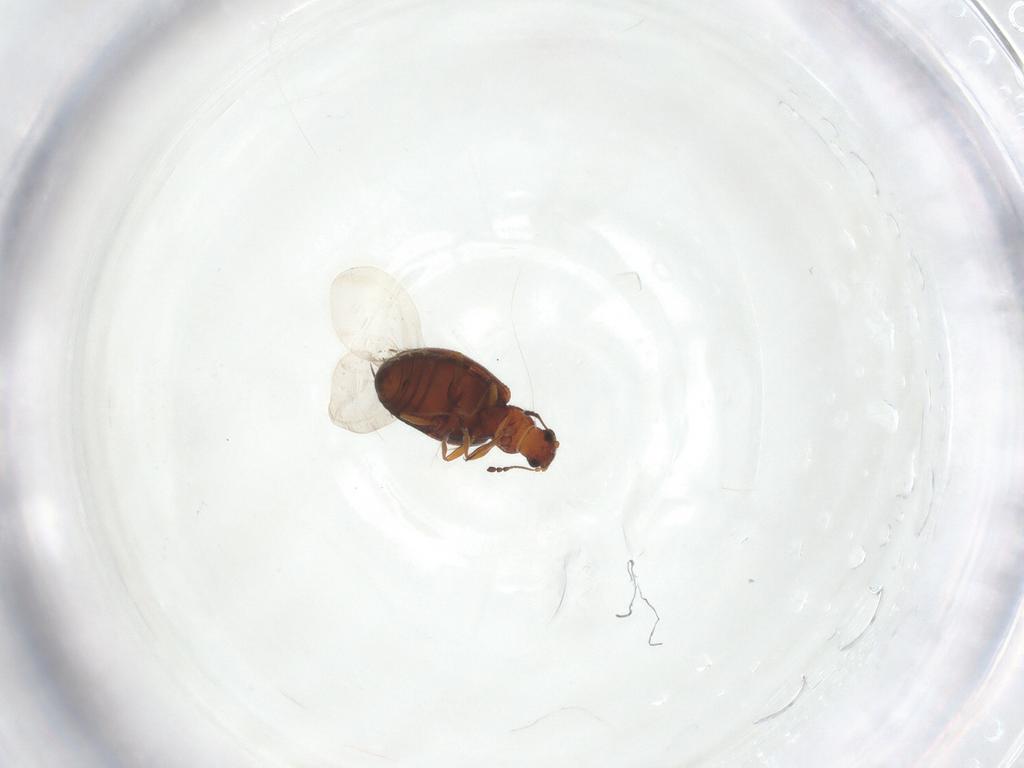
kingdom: Animalia
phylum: Arthropoda
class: Insecta
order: Coleoptera
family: Latridiidae
